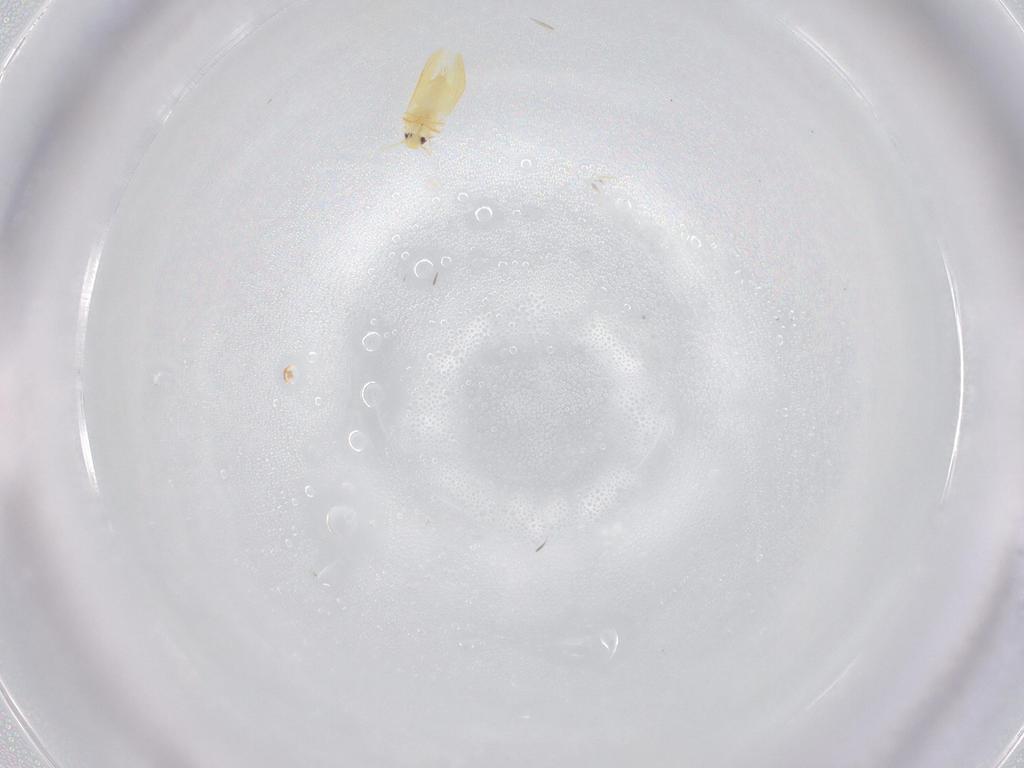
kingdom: Animalia
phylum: Arthropoda
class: Insecta
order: Hemiptera
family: Aleyrodidae
